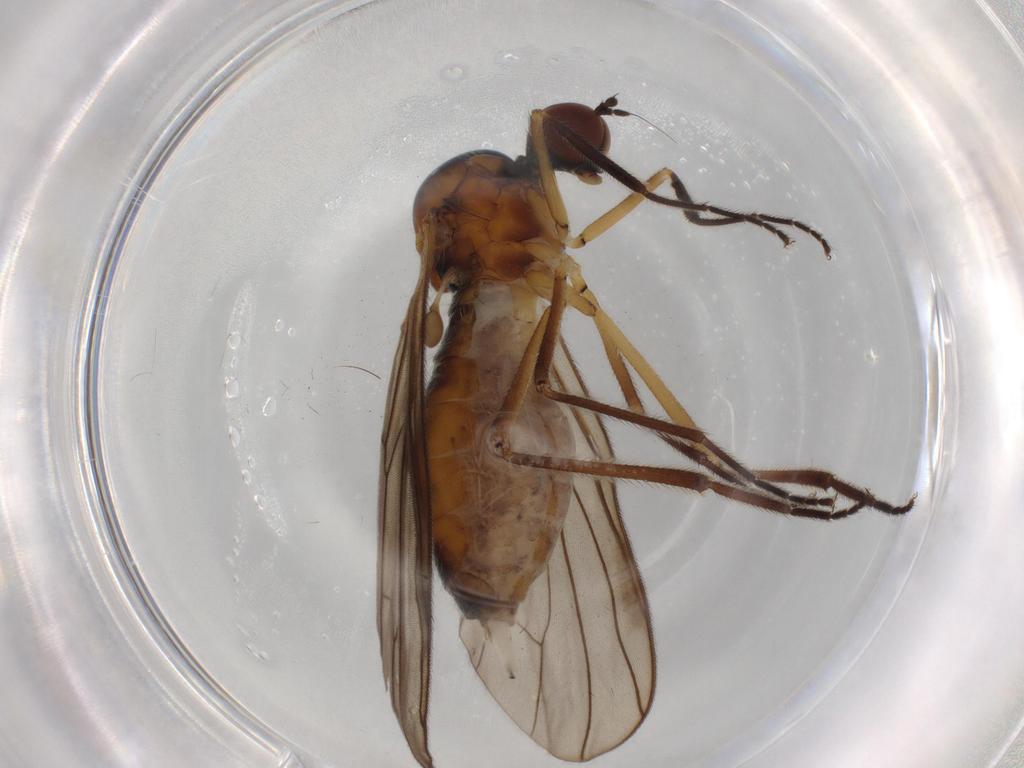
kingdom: Animalia
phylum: Arthropoda
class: Insecta
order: Diptera
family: Empididae
